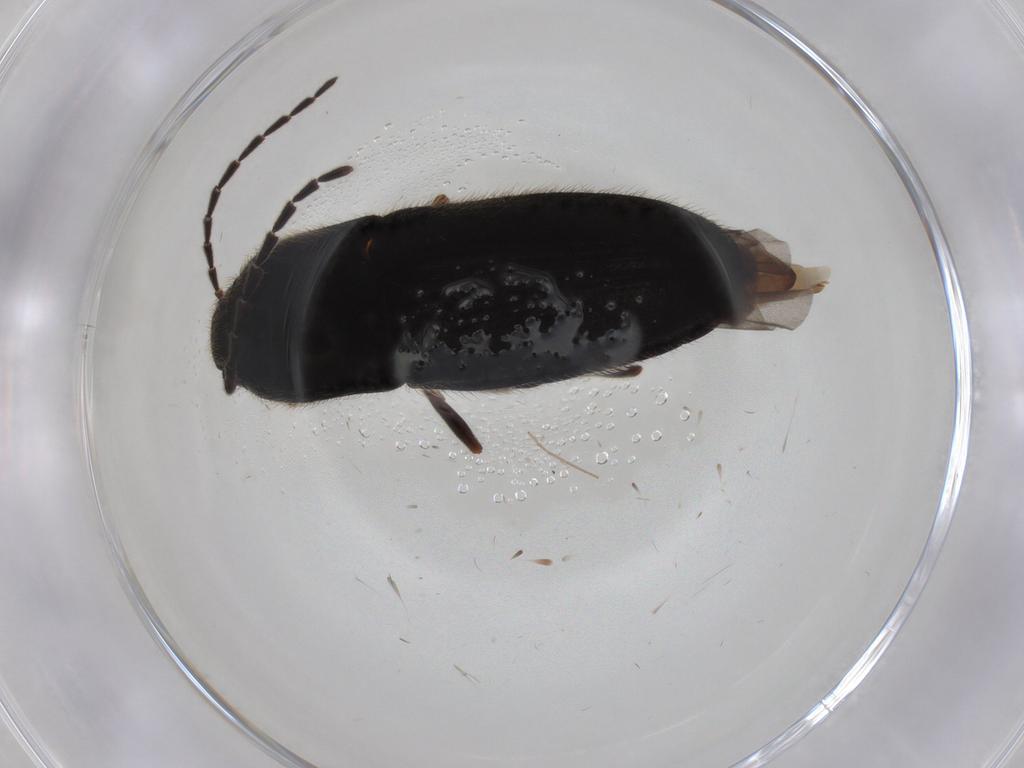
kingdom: Animalia
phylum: Arthropoda
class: Insecta
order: Coleoptera
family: Elateridae
